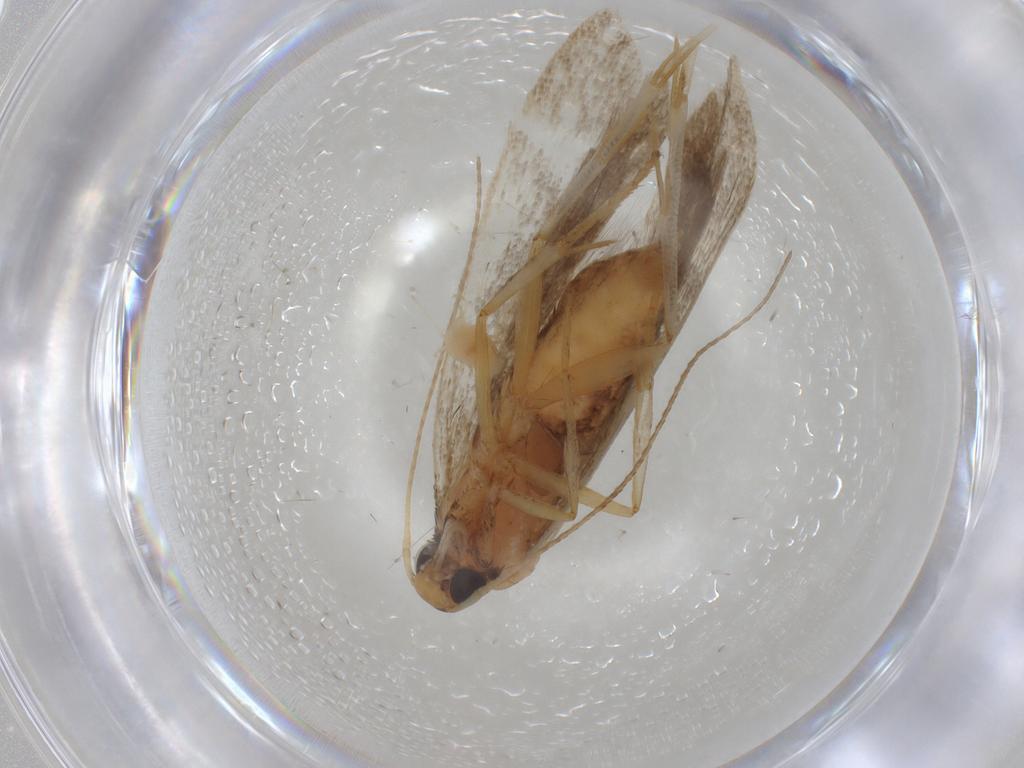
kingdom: Animalia
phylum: Arthropoda
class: Insecta
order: Lepidoptera
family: Gelechiidae
